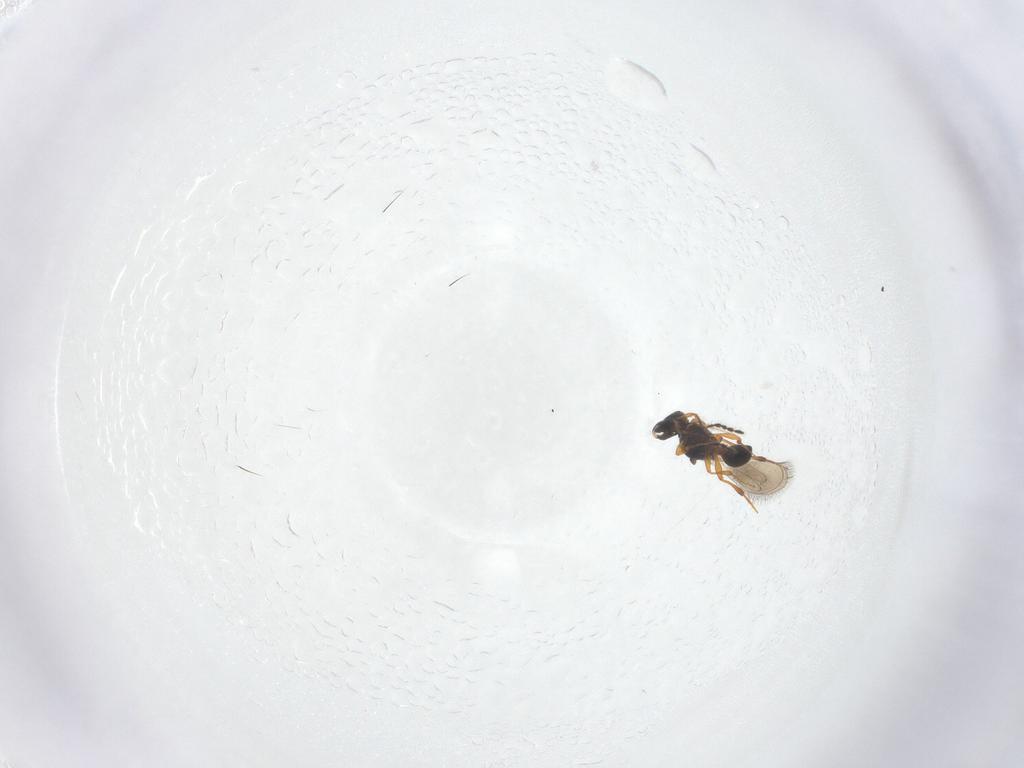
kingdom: Animalia
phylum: Arthropoda
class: Insecta
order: Hymenoptera
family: Platygastridae
